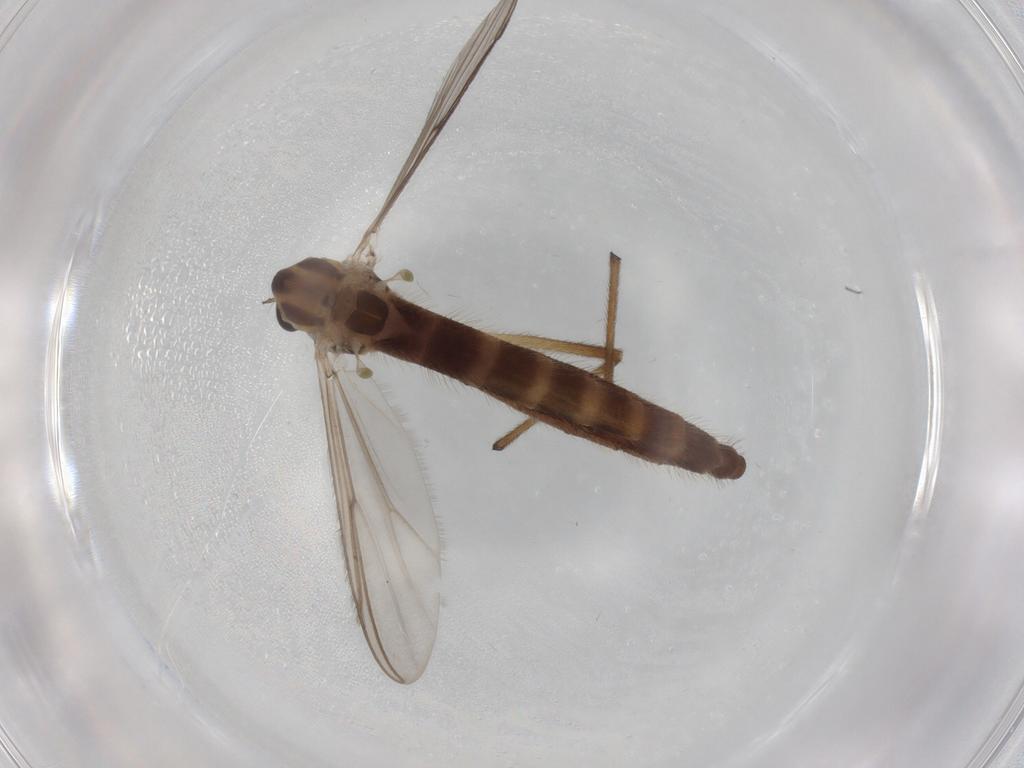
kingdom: Animalia
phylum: Arthropoda
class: Insecta
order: Diptera
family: Chironomidae
